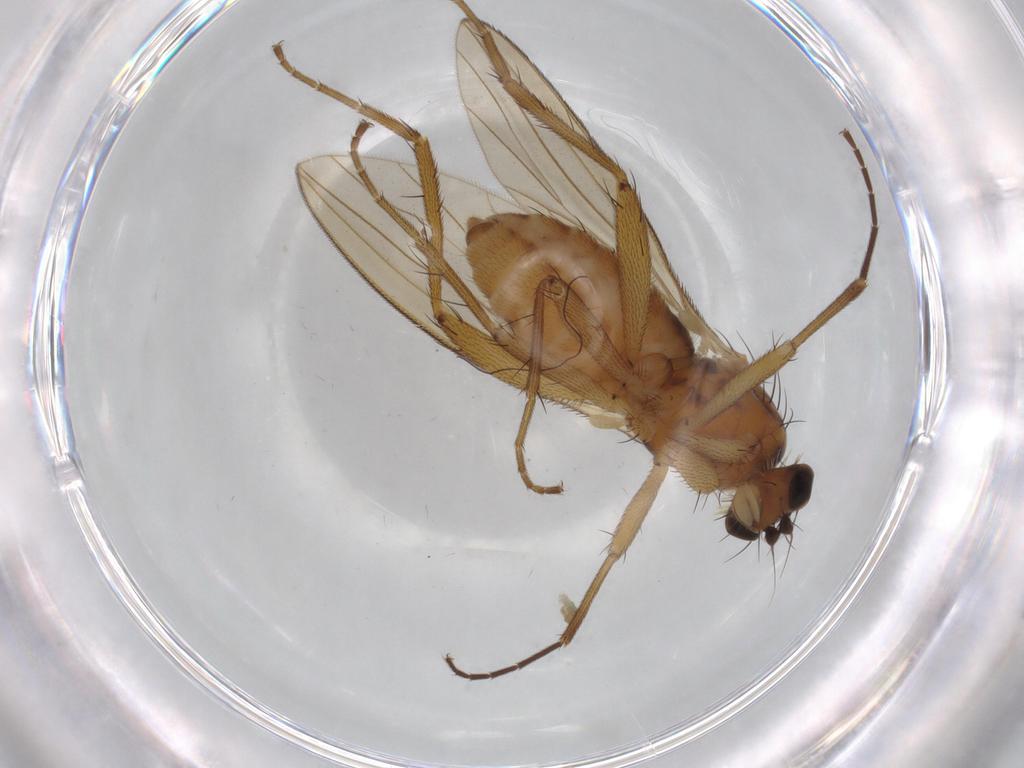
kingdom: Animalia
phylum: Arthropoda
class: Insecta
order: Diptera
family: Lonchopteridae
